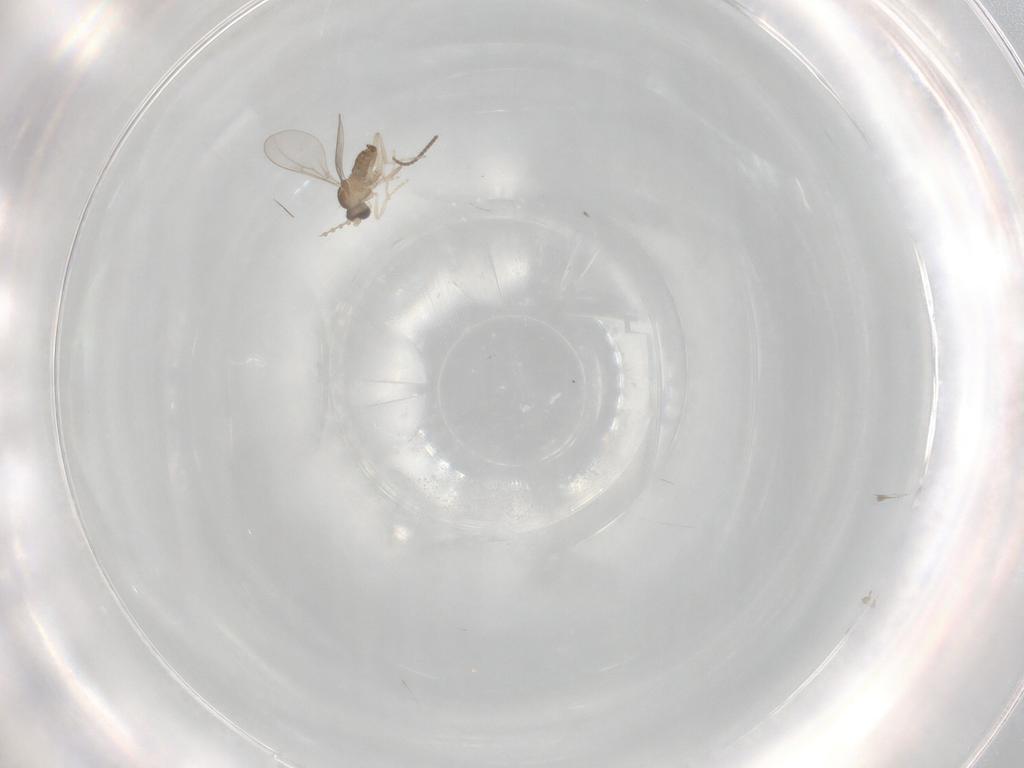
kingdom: Animalia
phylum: Arthropoda
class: Insecta
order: Diptera
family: Cecidomyiidae
